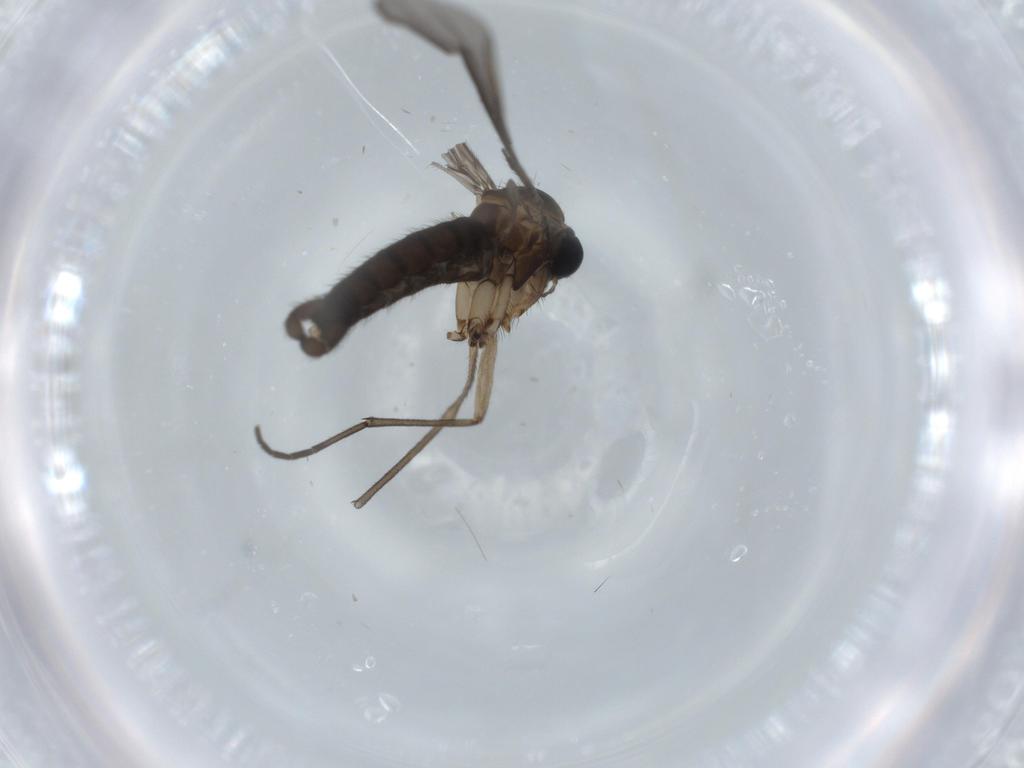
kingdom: Animalia
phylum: Arthropoda
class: Insecta
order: Diptera
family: Sciaridae
